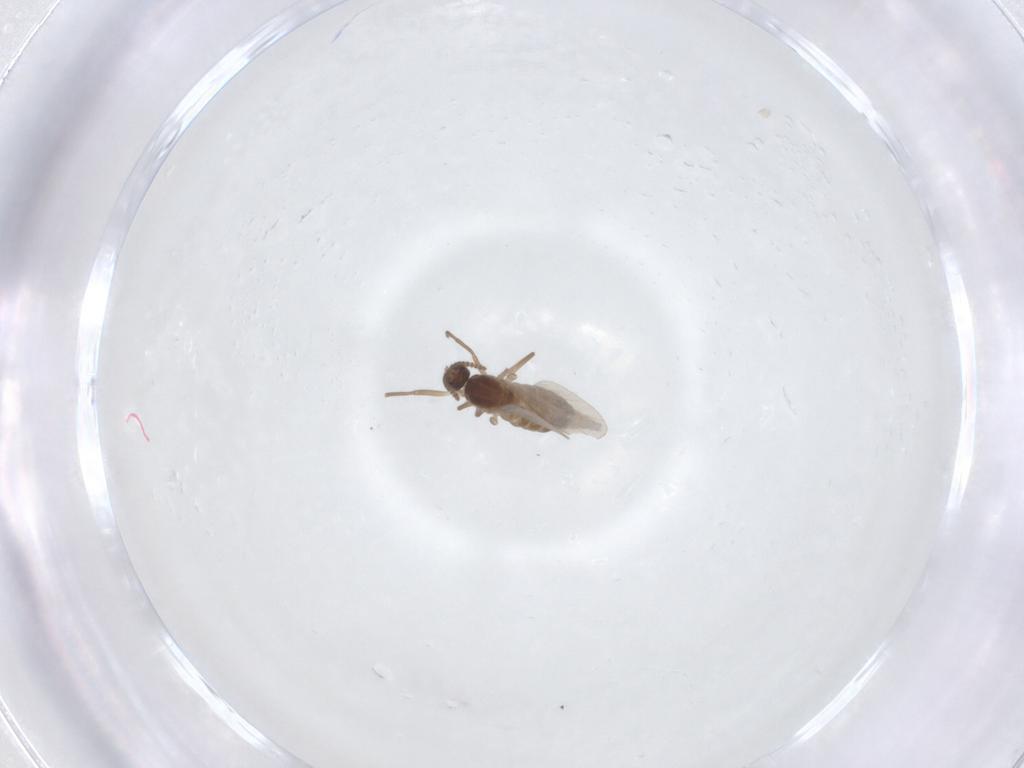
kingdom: Animalia
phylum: Arthropoda
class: Insecta
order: Diptera
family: Cecidomyiidae
